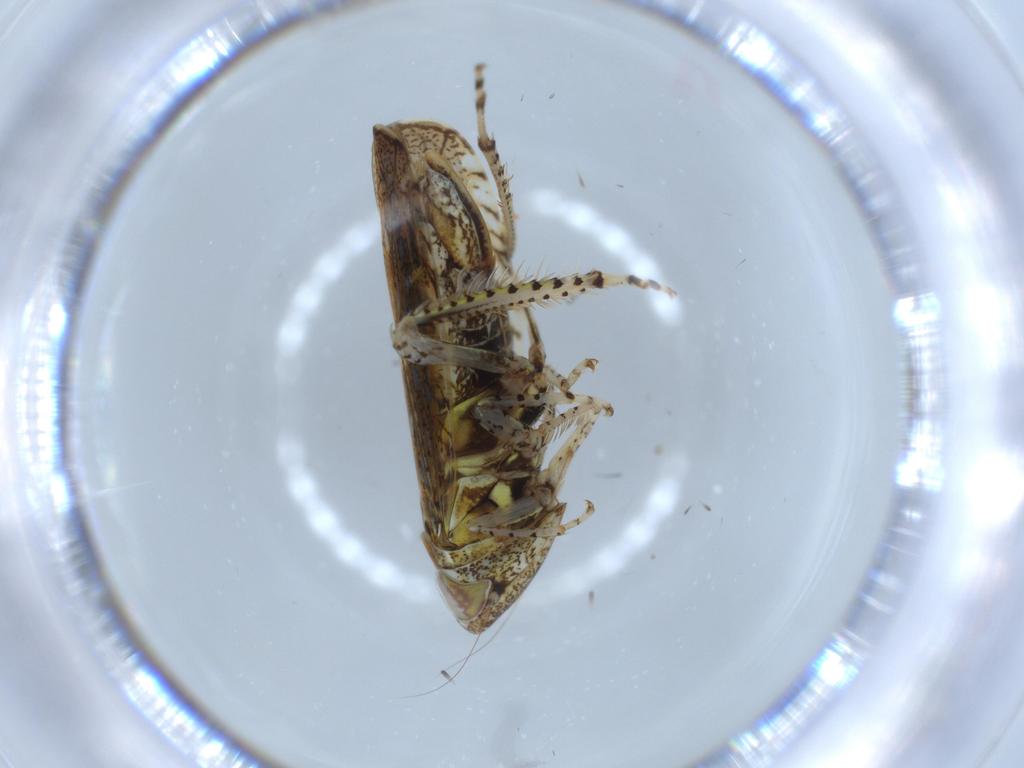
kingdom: Animalia
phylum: Arthropoda
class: Insecta
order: Hemiptera
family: Cicadellidae
